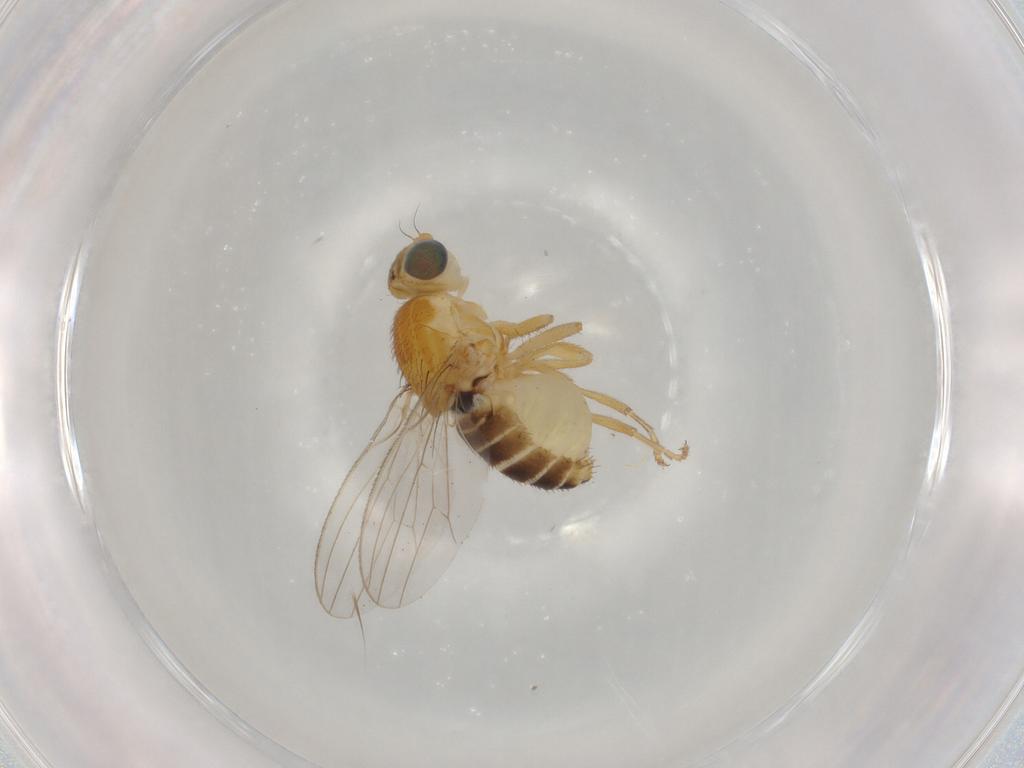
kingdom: Animalia
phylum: Arthropoda
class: Insecta
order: Diptera
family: Chyromyidae
